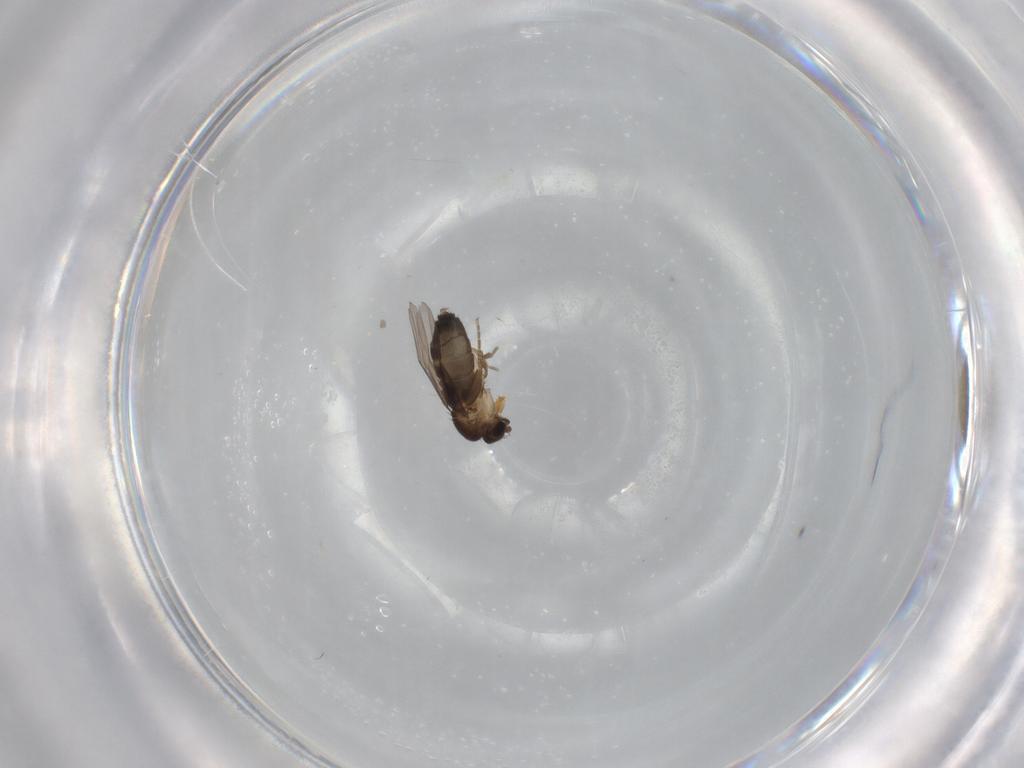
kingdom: Animalia
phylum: Arthropoda
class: Insecta
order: Diptera
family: Phoridae
